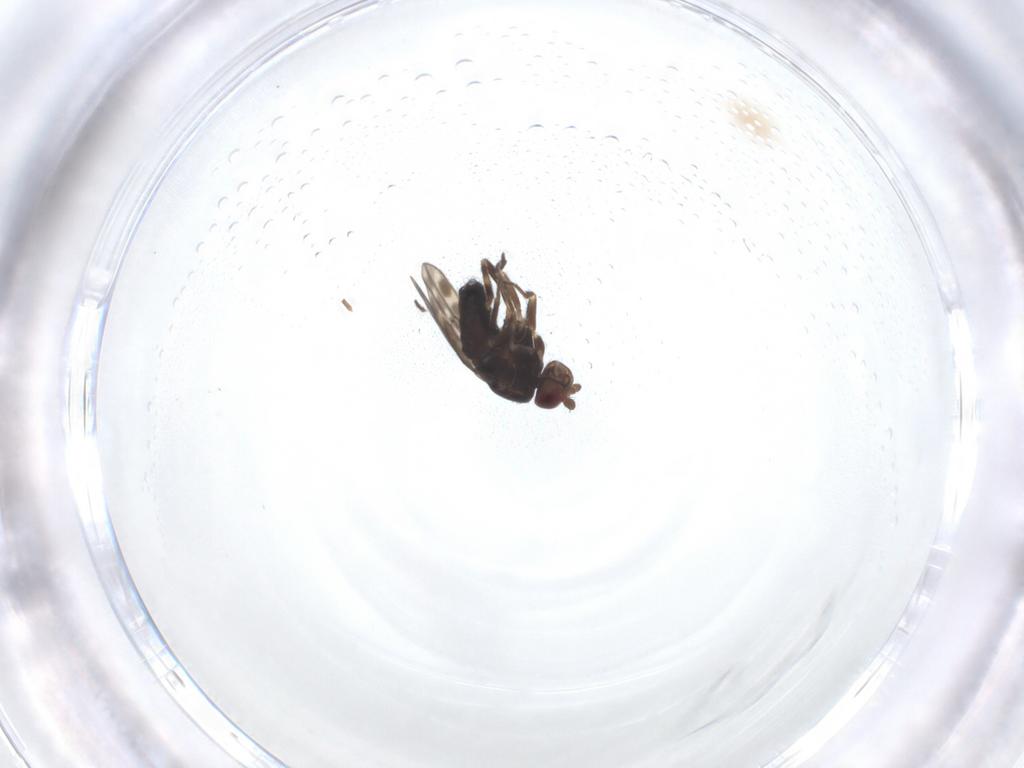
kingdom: Animalia
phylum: Arthropoda
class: Insecta
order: Diptera
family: Sphaeroceridae
